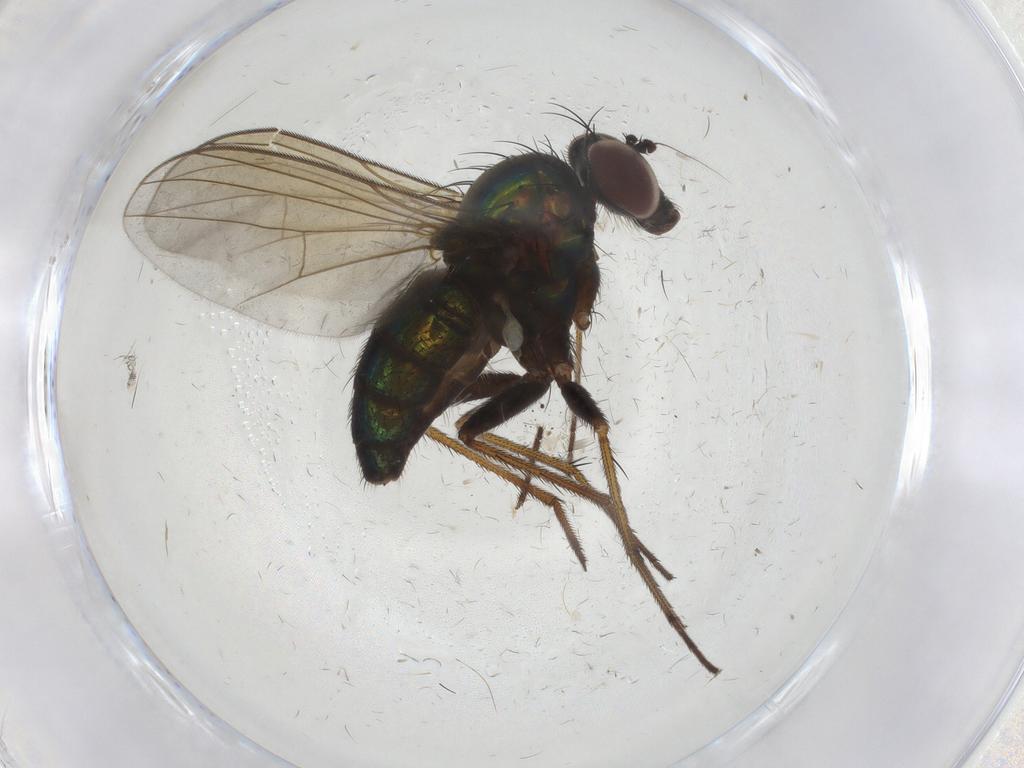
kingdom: Animalia
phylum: Arthropoda
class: Insecta
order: Diptera
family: Dolichopodidae
